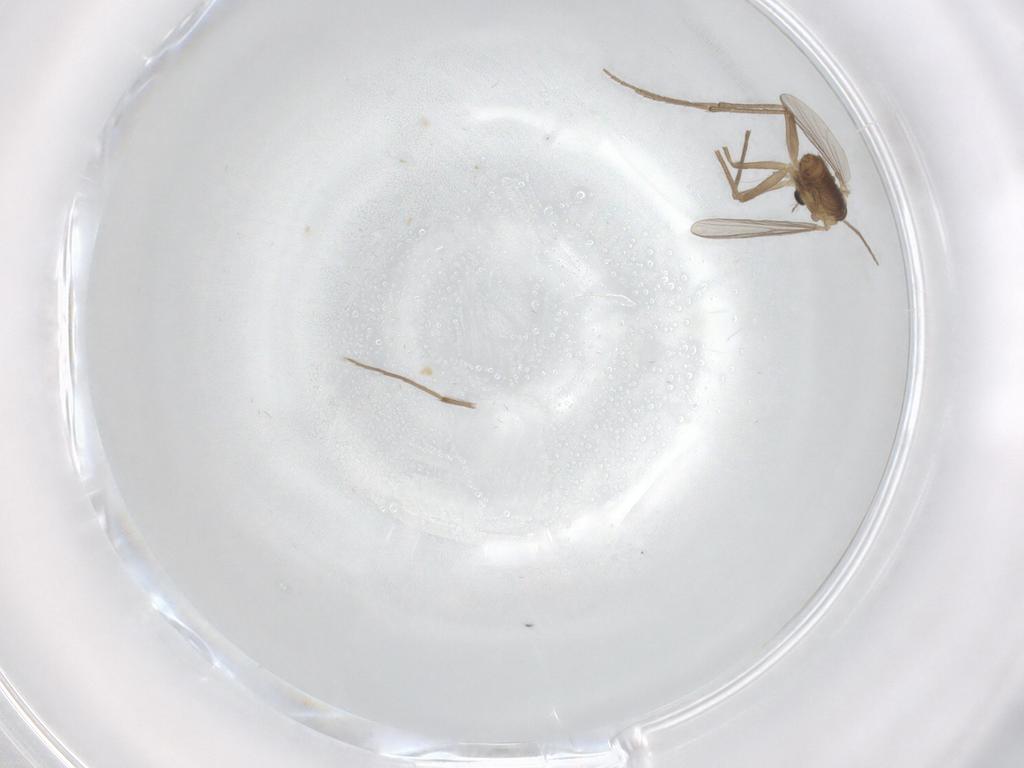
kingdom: Animalia
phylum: Arthropoda
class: Insecta
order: Diptera
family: Chironomidae
